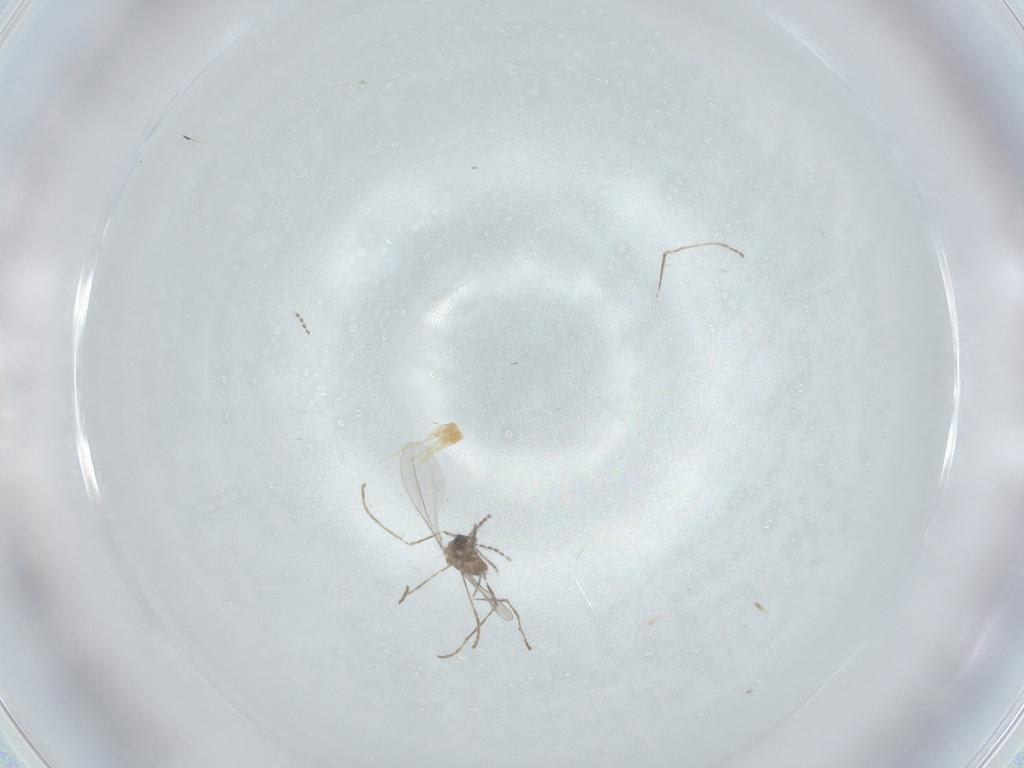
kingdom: Animalia
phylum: Arthropoda
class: Insecta
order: Diptera
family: Cecidomyiidae
